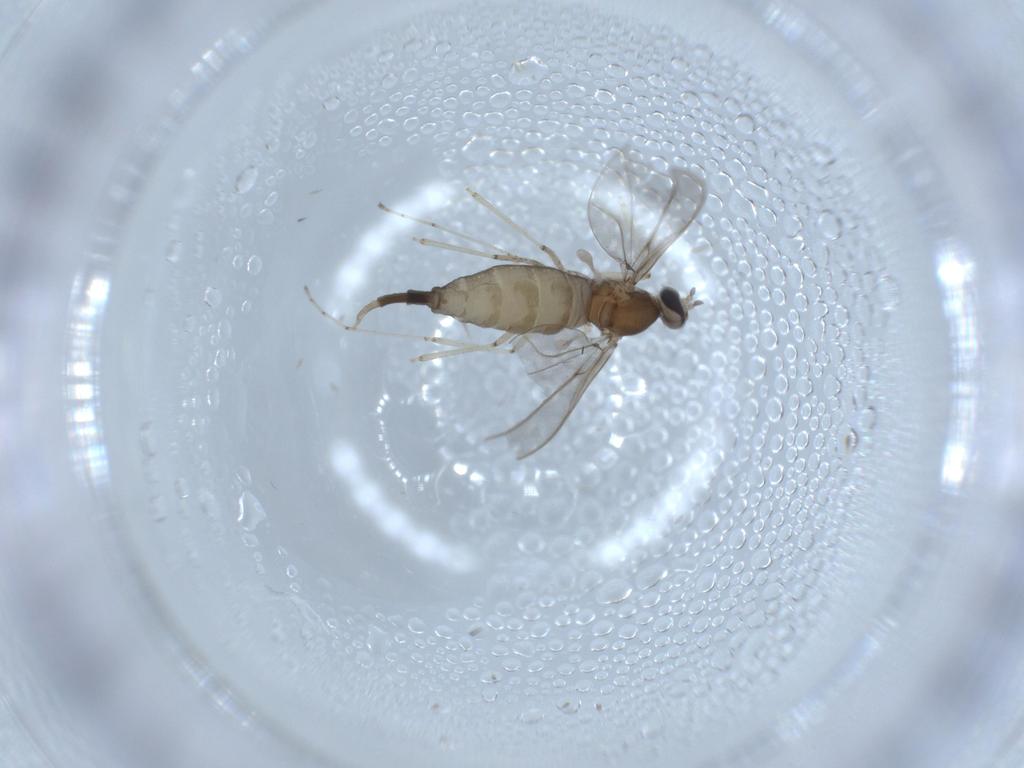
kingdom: Animalia
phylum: Arthropoda
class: Insecta
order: Diptera
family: Cecidomyiidae
